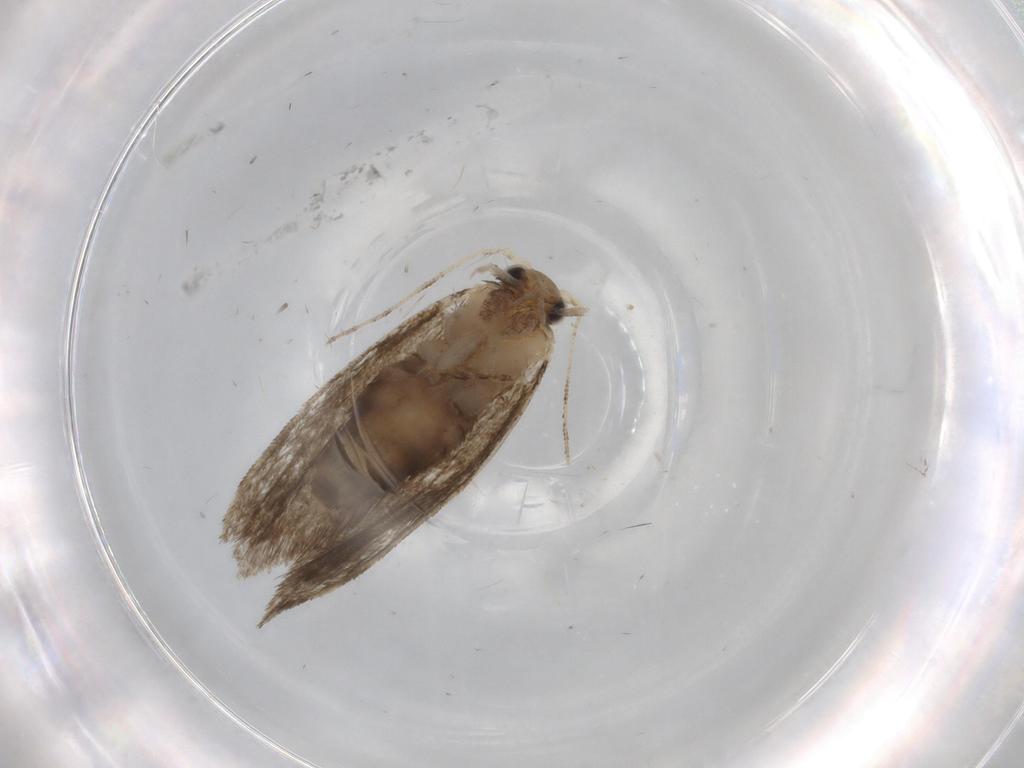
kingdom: Animalia
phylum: Arthropoda
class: Insecta
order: Lepidoptera
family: Tineidae
